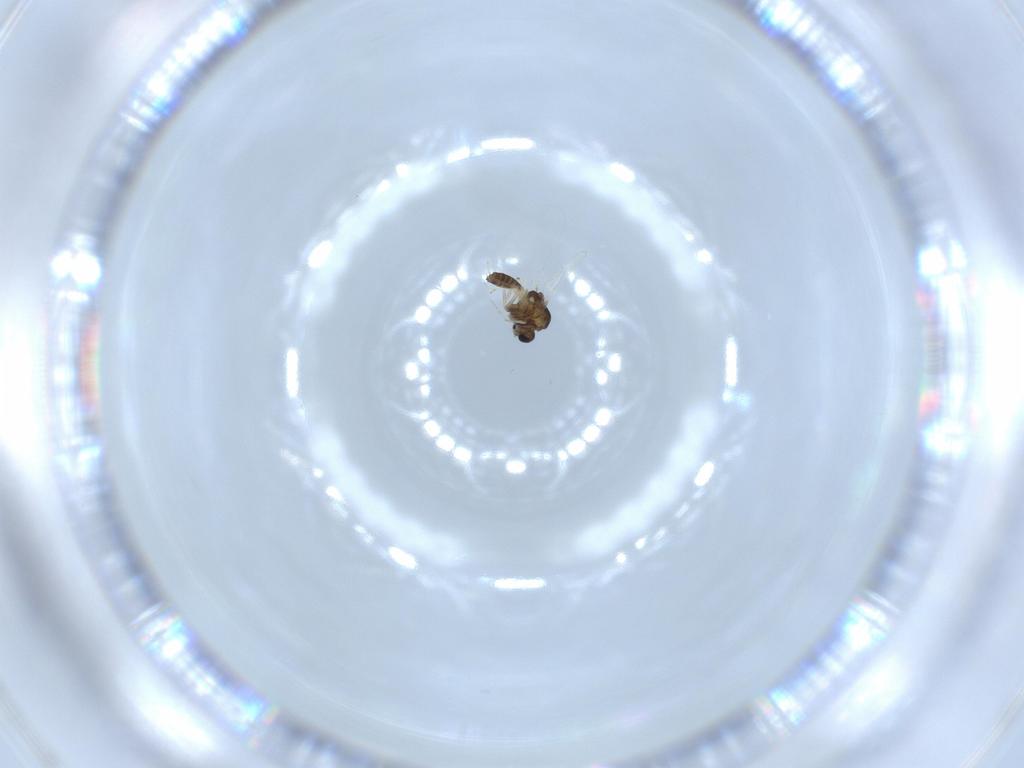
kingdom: Animalia
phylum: Arthropoda
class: Insecta
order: Diptera
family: Chironomidae
